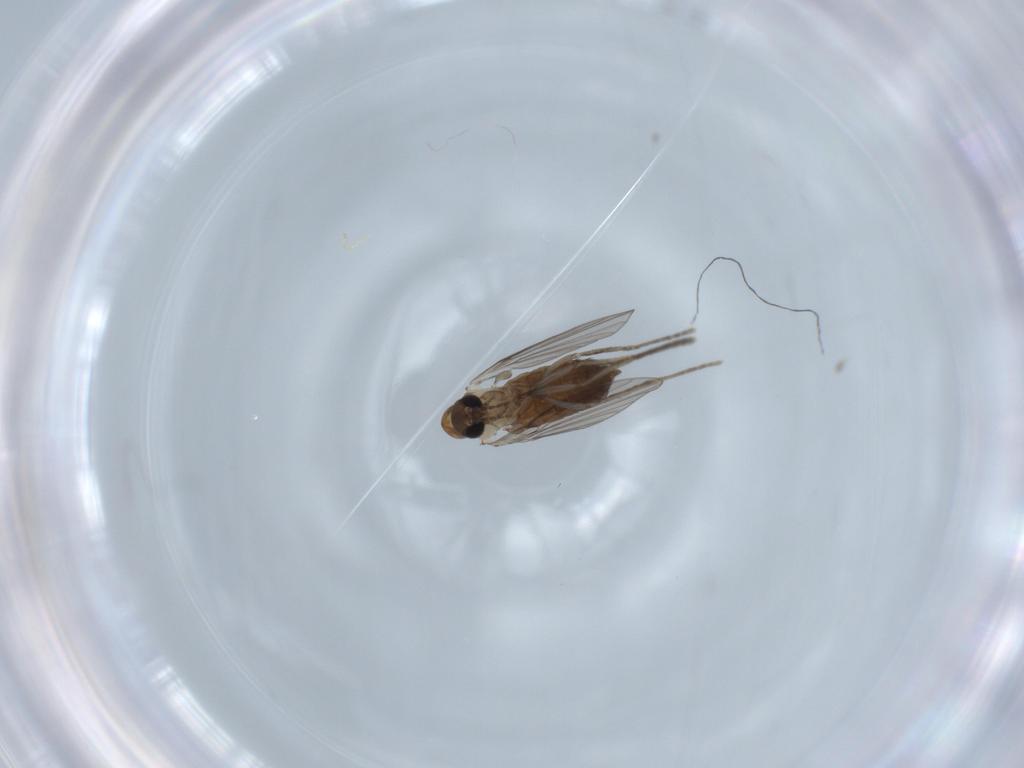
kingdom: Animalia
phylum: Arthropoda
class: Insecta
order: Diptera
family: Psychodidae
